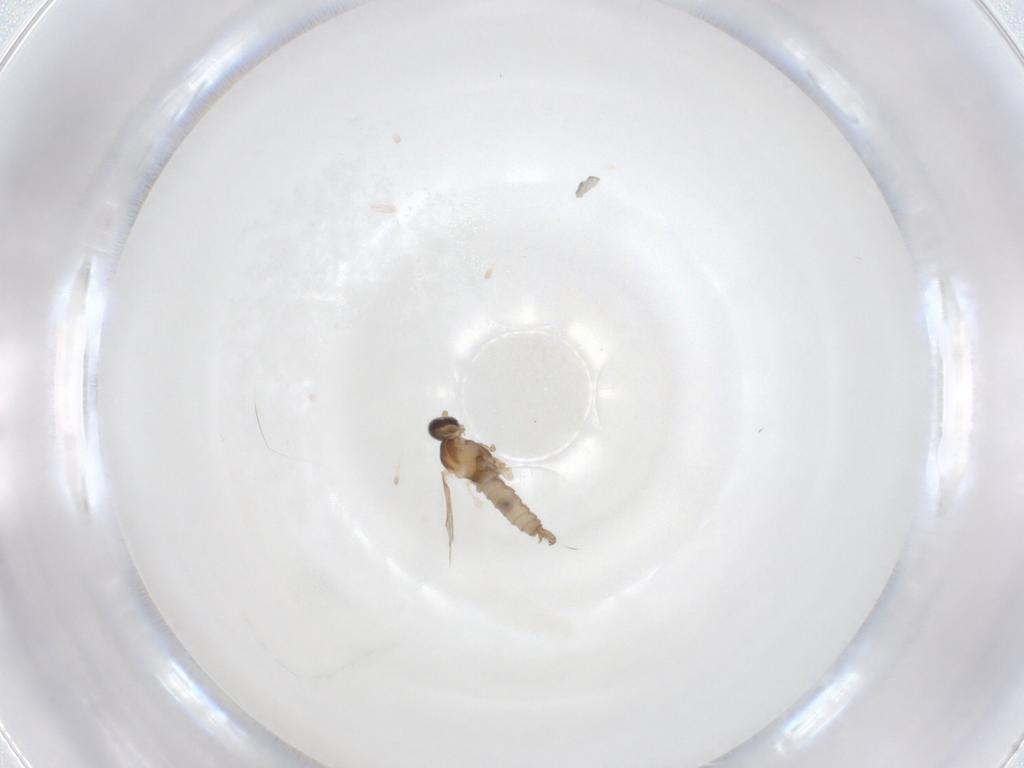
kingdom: Animalia
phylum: Arthropoda
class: Insecta
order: Diptera
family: Cecidomyiidae
